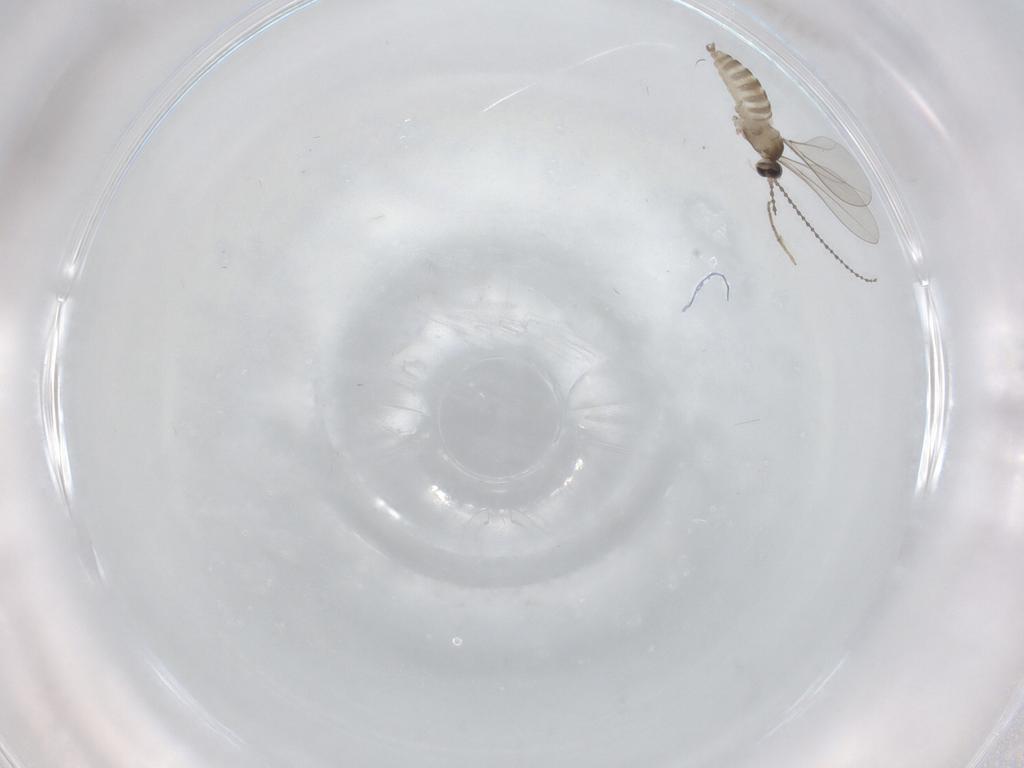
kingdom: Animalia
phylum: Arthropoda
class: Insecta
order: Diptera
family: Cecidomyiidae
